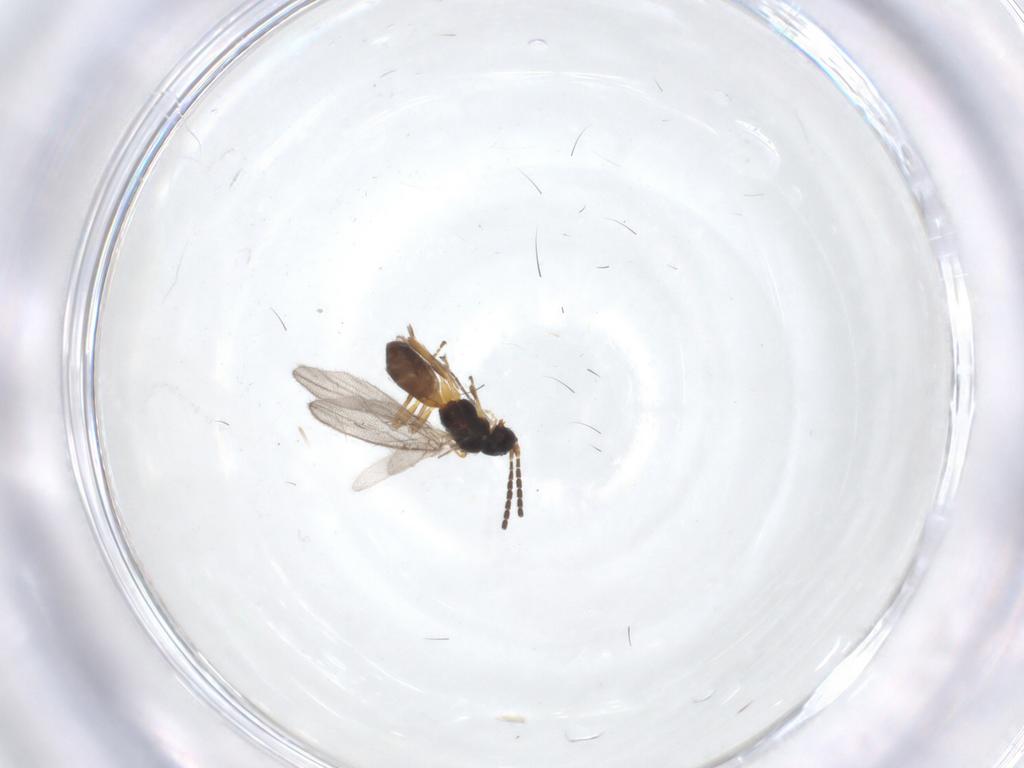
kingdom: Animalia
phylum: Arthropoda
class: Insecta
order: Hymenoptera
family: Braconidae
